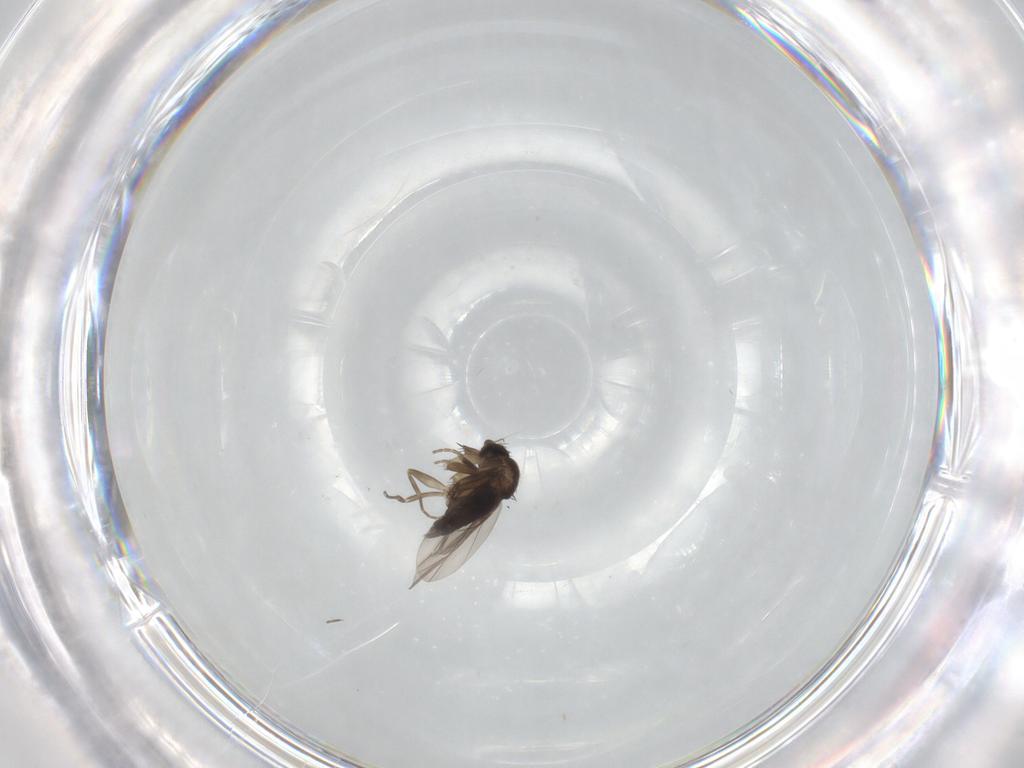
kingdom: Animalia
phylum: Arthropoda
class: Insecta
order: Diptera
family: Phoridae
